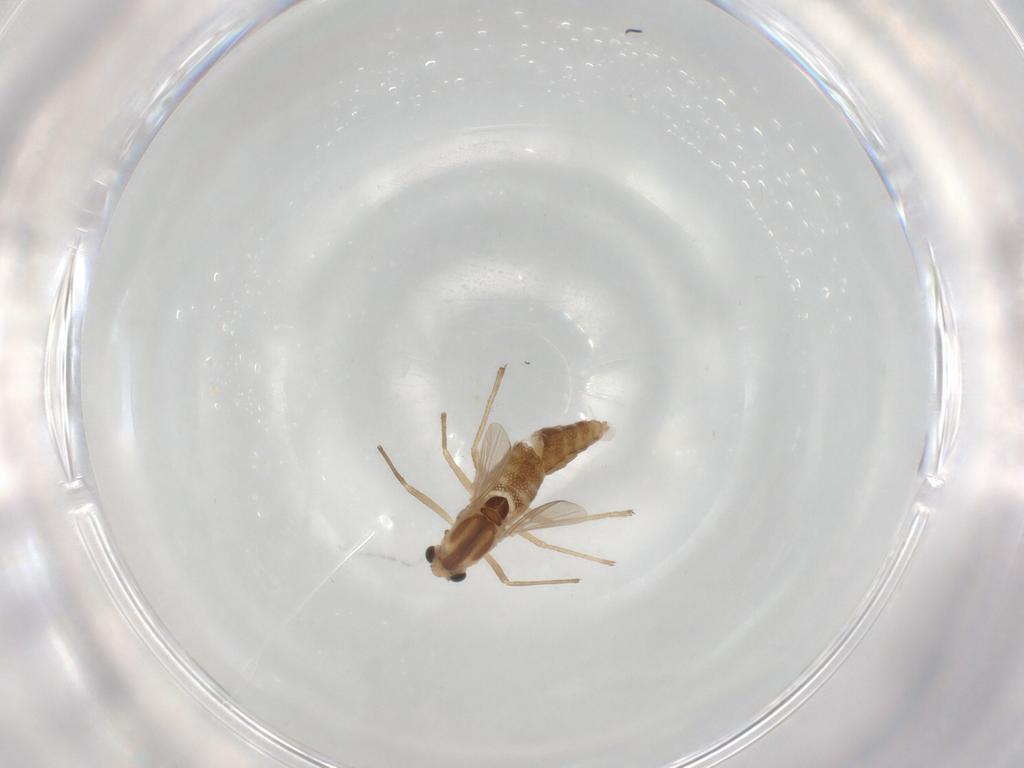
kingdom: Animalia
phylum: Arthropoda
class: Insecta
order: Diptera
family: Chironomidae
